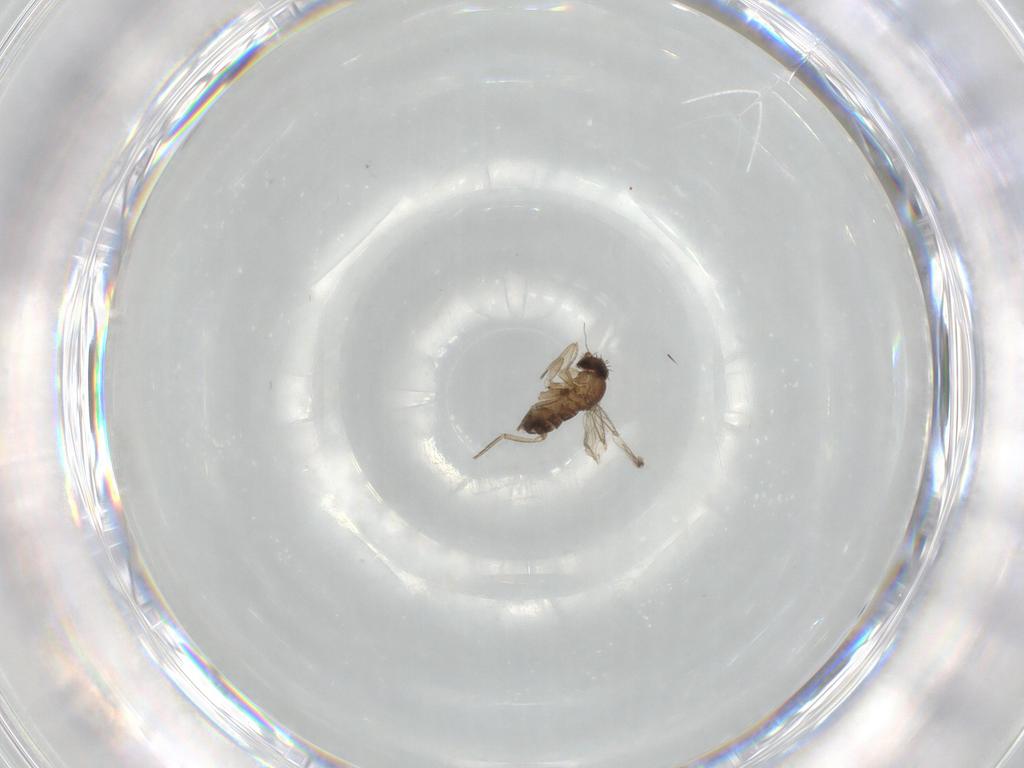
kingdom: Animalia
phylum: Arthropoda
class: Insecta
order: Diptera
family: Phoridae
